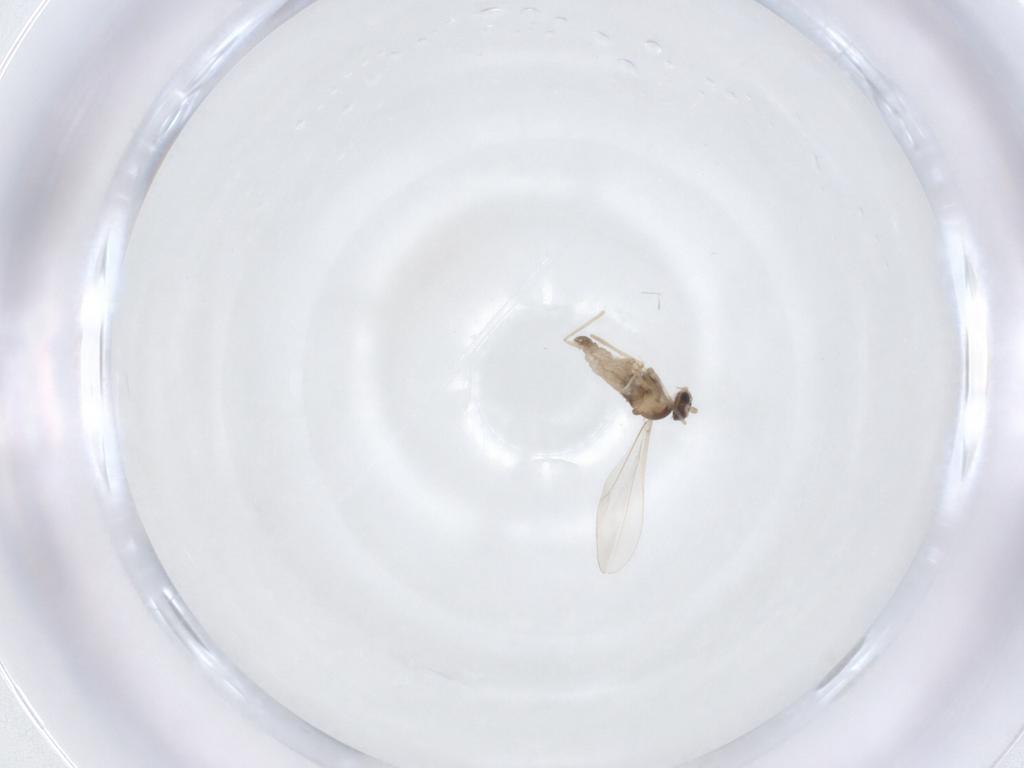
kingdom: Animalia
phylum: Arthropoda
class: Insecta
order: Diptera
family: Cecidomyiidae
